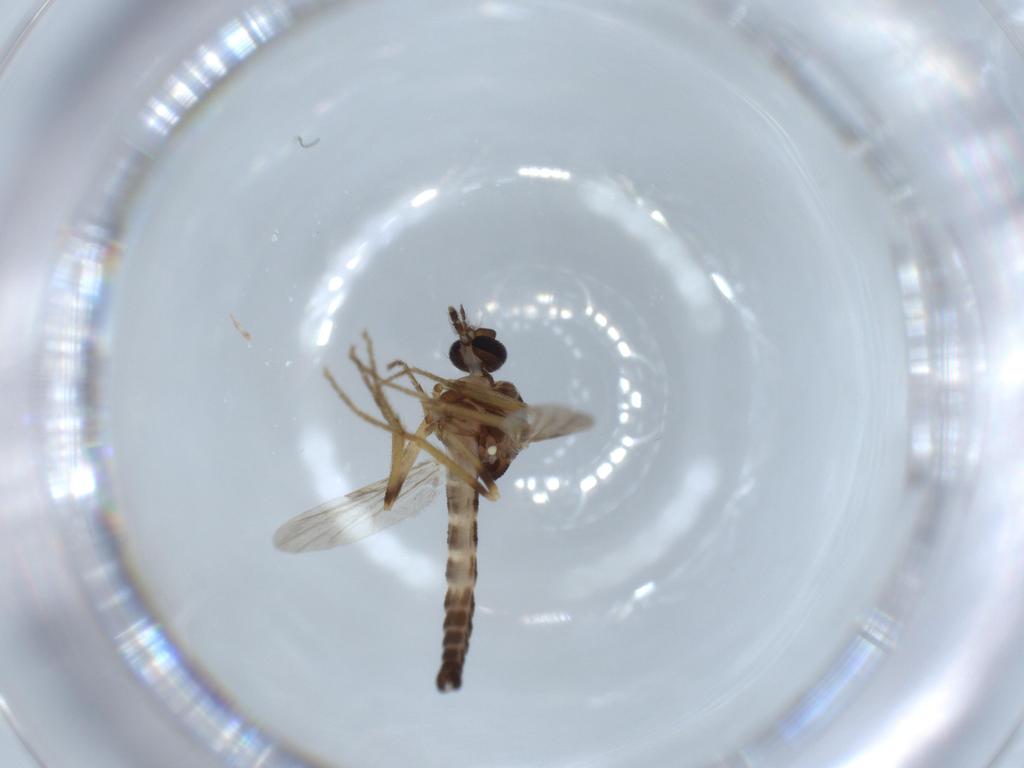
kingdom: Animalia
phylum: Arthropoda
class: Insecta
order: Diptera
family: Ceratopogonidae
